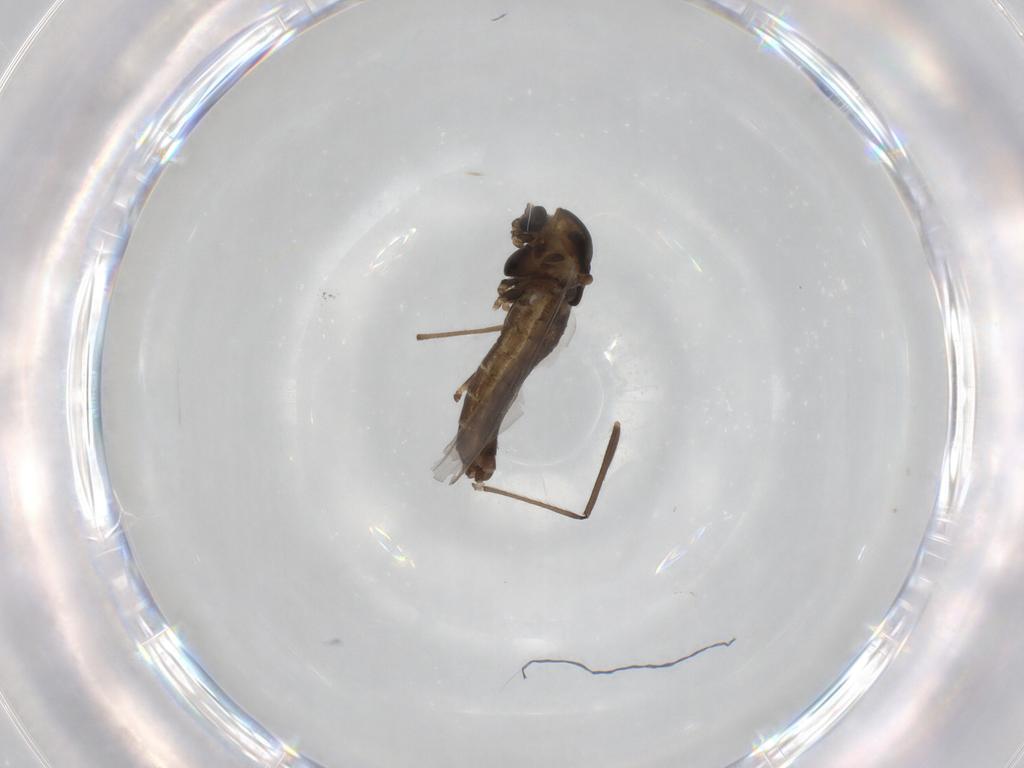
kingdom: Animalia
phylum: Arthropoda
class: Insecta
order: Diptera
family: Chironomidae
